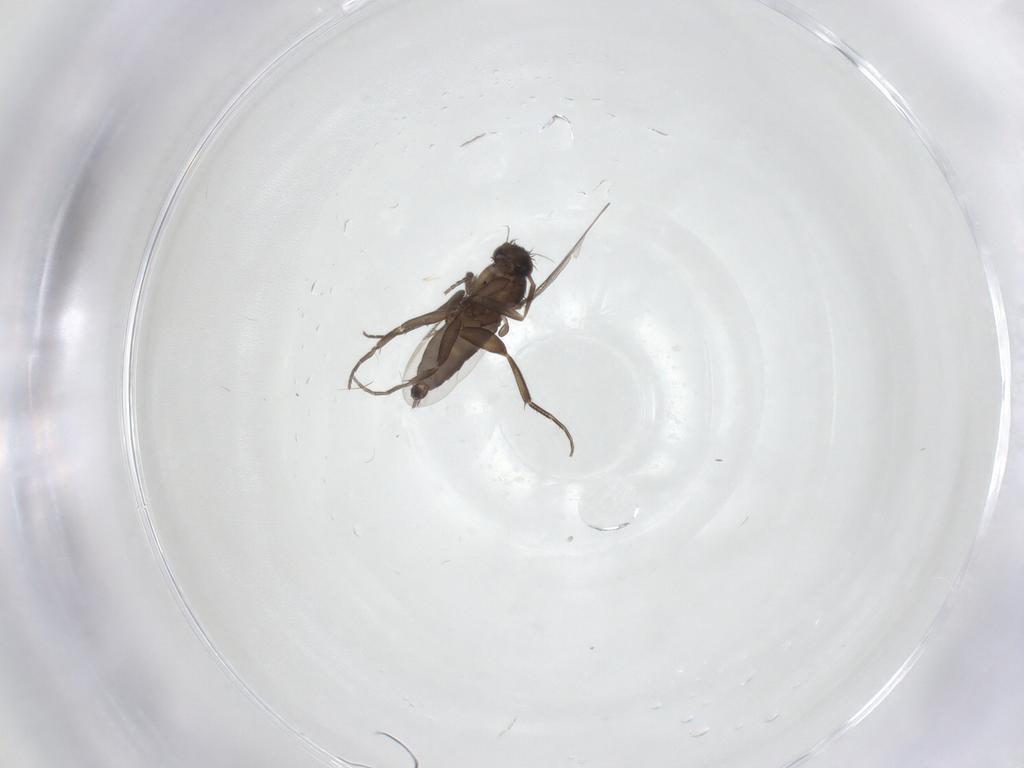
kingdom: Animalia
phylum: Arthropoda
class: Insecta
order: Diptera
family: Phoridae
